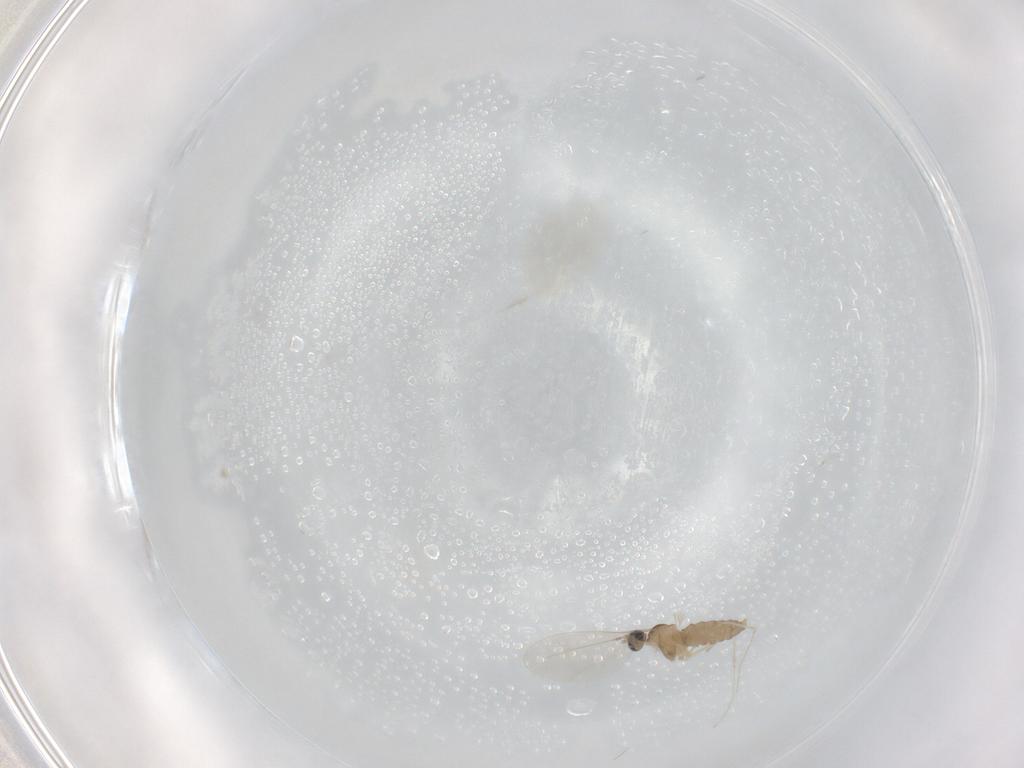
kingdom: Animalia
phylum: Arthropoda
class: Insecta
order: Diptera
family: Cecidomyiidae
